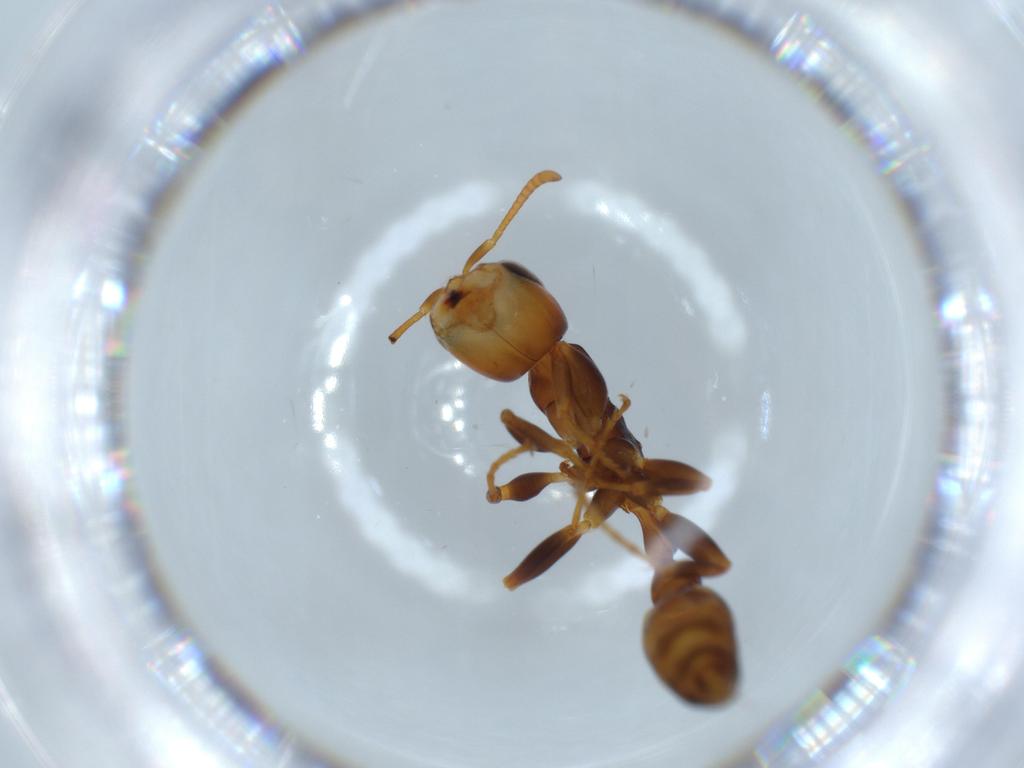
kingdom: Animalia
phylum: Arthropoda
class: Insecta
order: Hymenoptera
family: Formicidae
